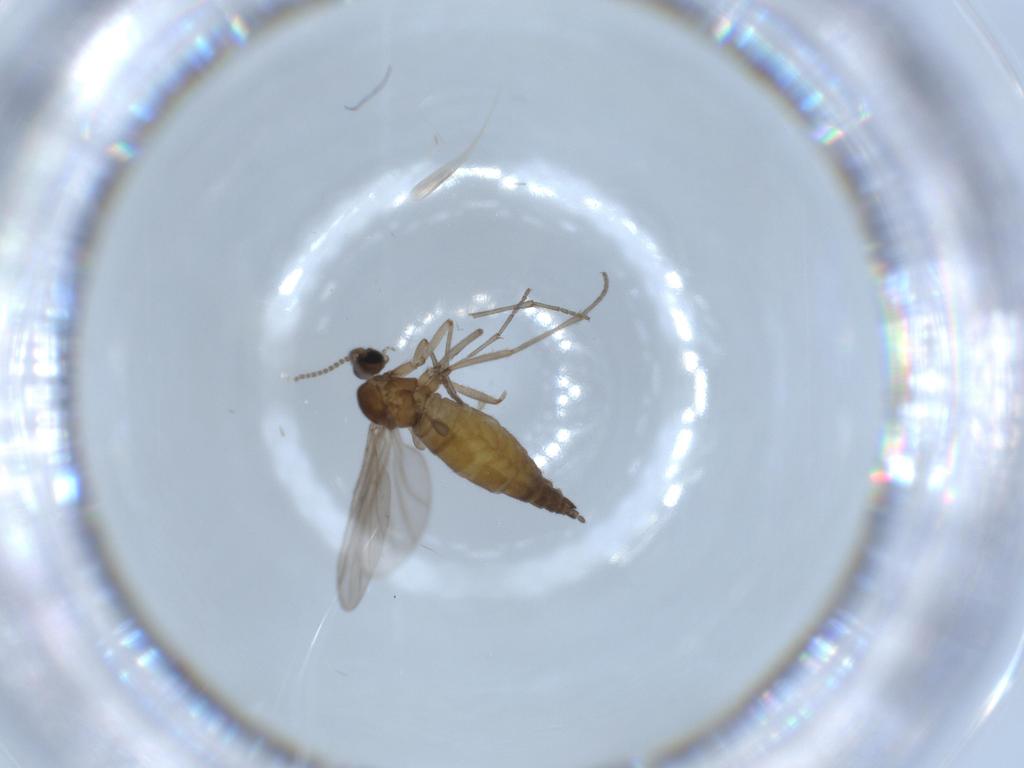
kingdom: Animalia
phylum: Arthropoda
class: Insecta
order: Diptera
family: Sciaridae
